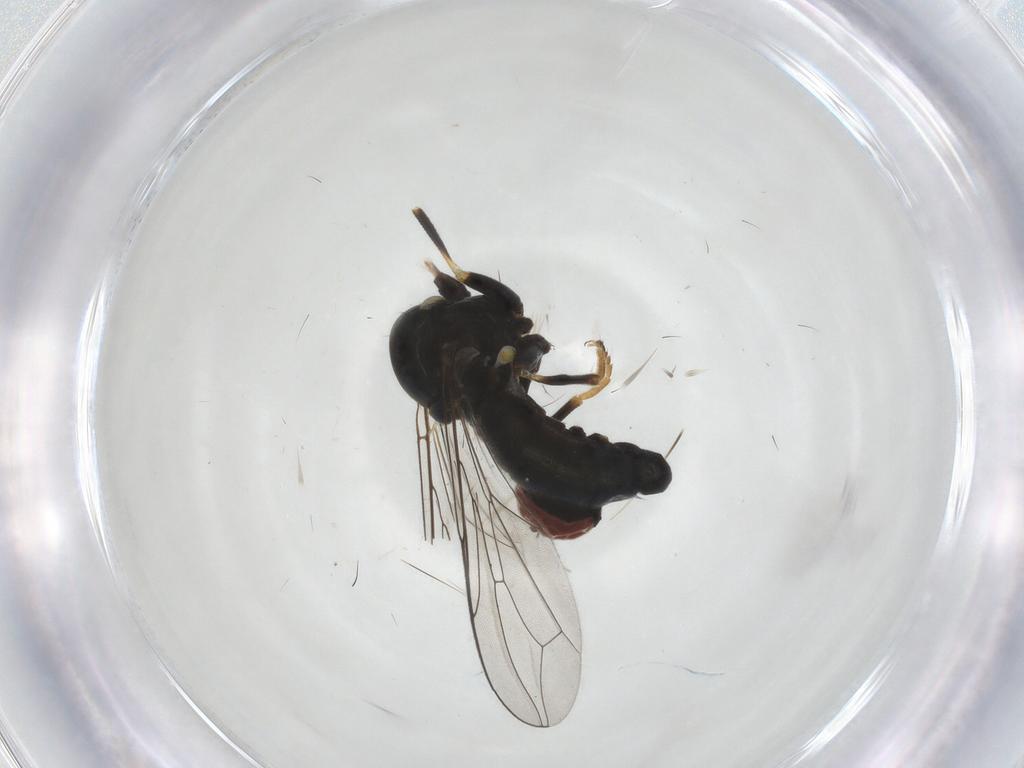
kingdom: Animalia
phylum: Arthropoda
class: Insecta
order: Diptera
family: Pipunculidae
